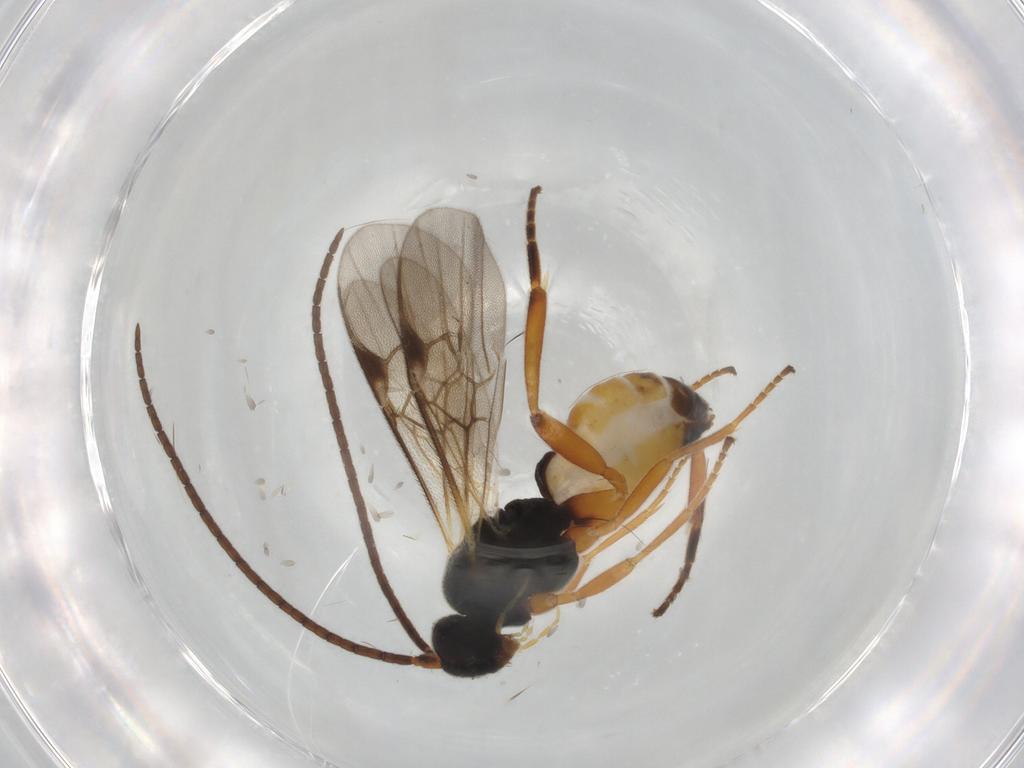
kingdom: Animalia
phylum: Arthropoda
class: Insecta
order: Hymenoptera
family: Braconidae
